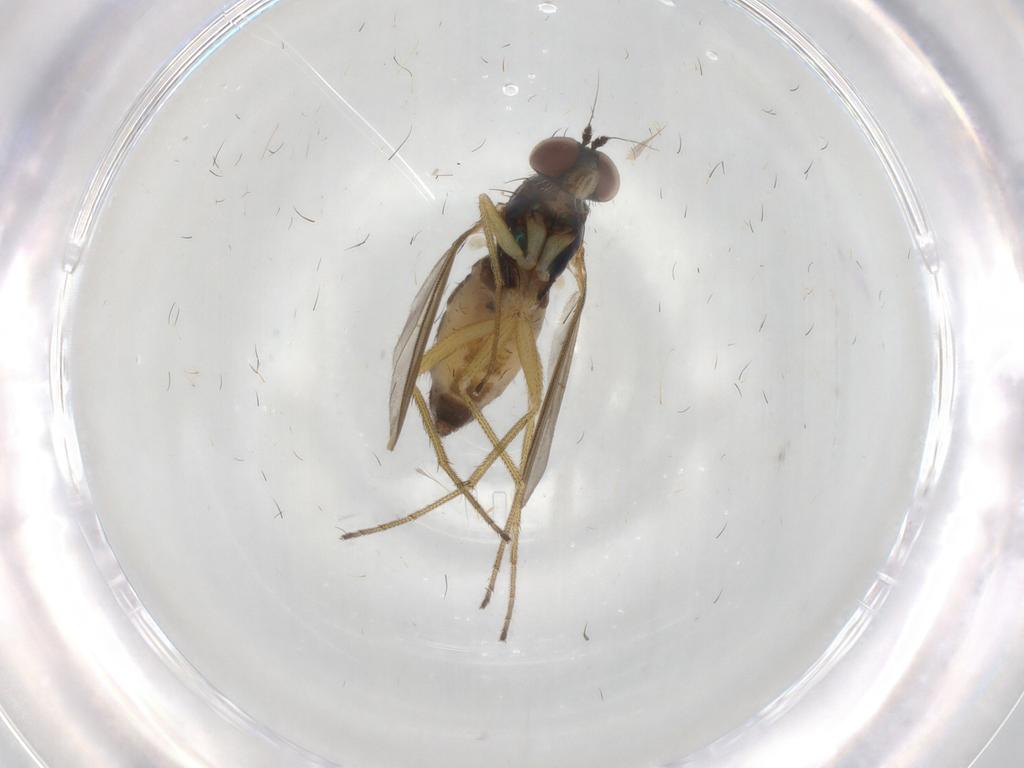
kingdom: Animalia
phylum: Arthropoda
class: Insecta
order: Diptera
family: Dolichopodidae
